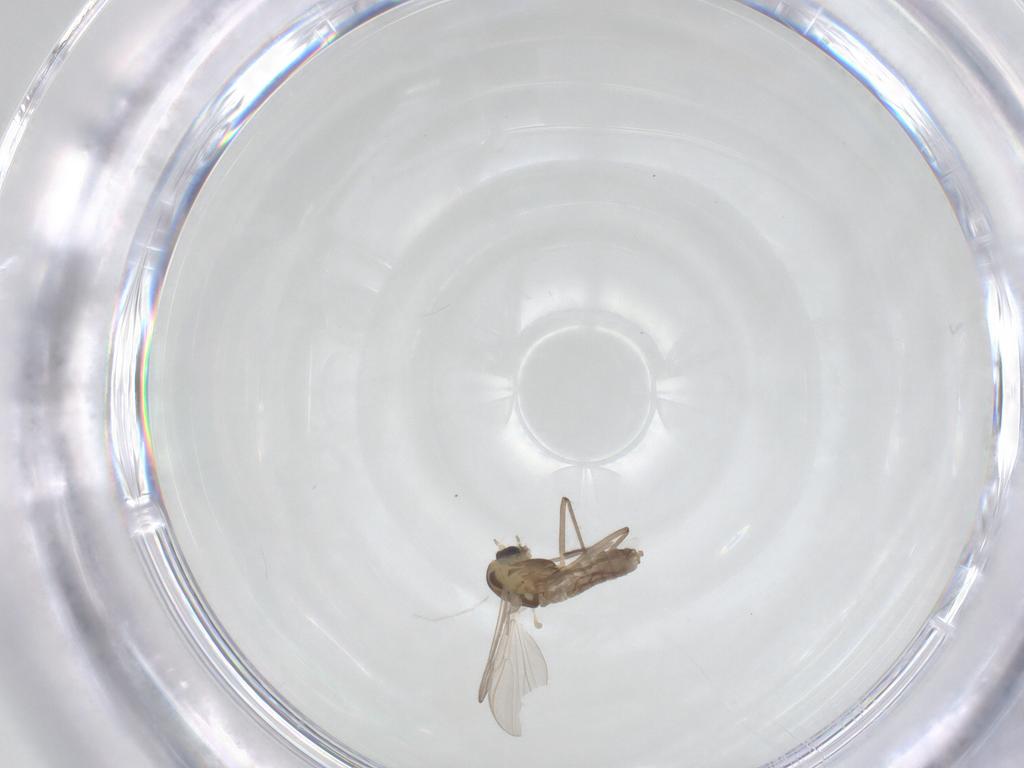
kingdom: Animalia
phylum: Arthropoda
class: Insecta
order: Diptera
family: Chironomidae
